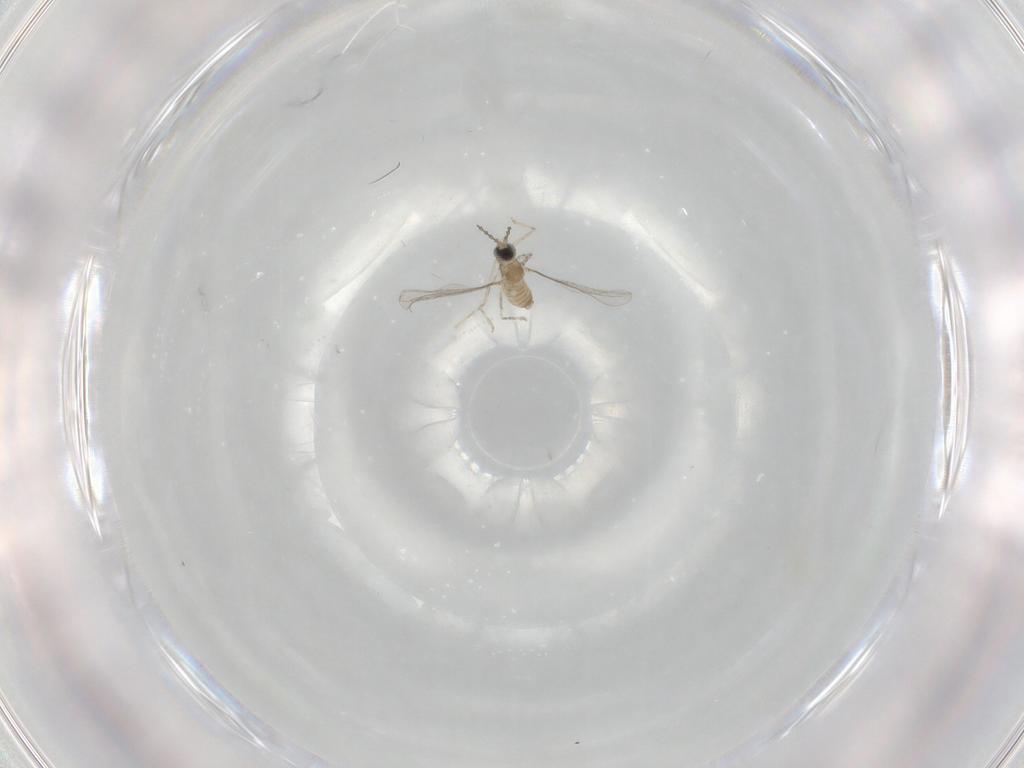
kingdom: Animalia
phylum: Arthropoda
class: Insecta
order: Diptera
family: Cecidomyiidae
